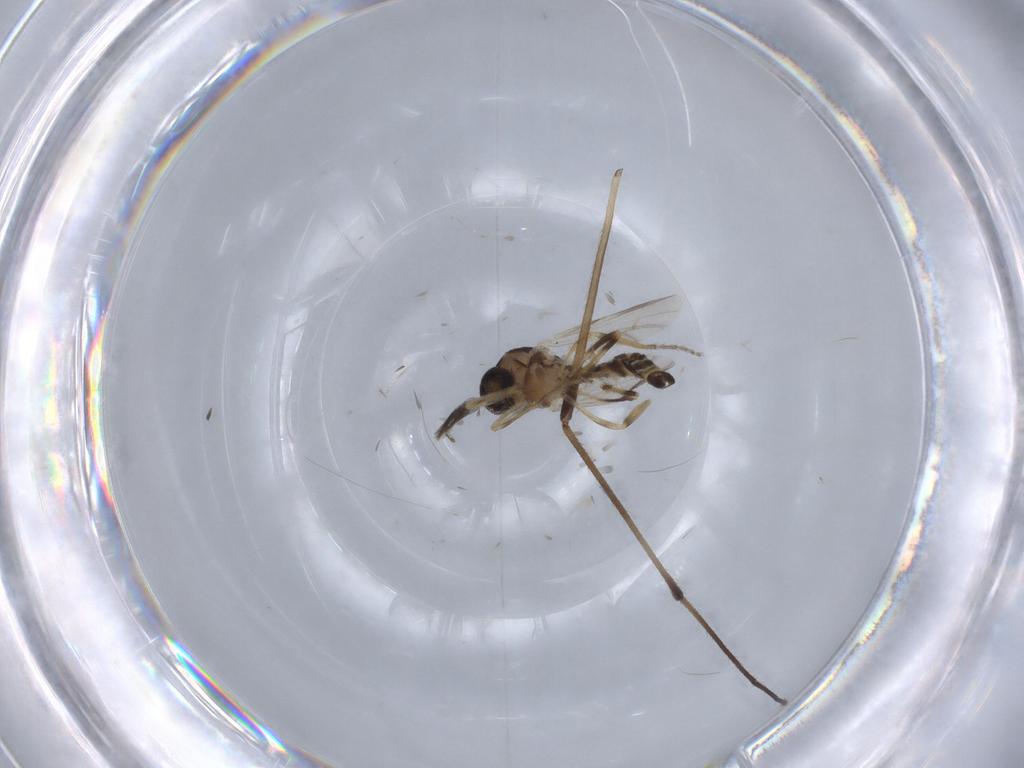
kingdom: Animalia
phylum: Arthropoda
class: Insecta
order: Diptera
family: Ceratopogonidae
